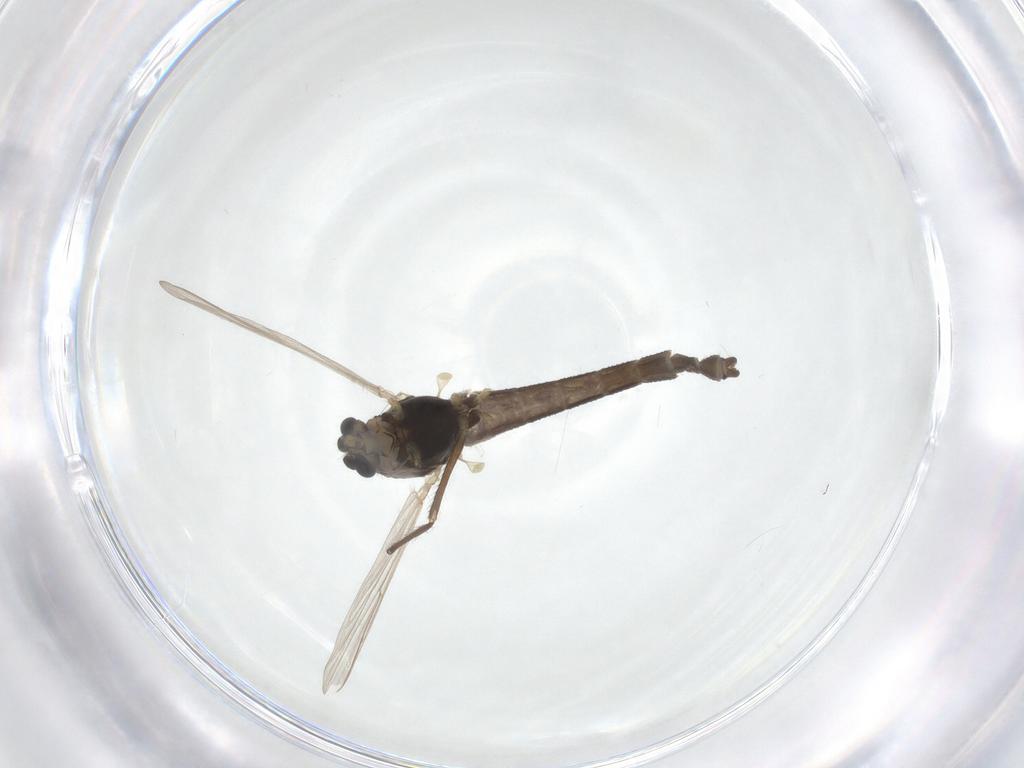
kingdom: Animalia
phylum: Arthropoda
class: Insecta
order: Diptera
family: Chironomidae
